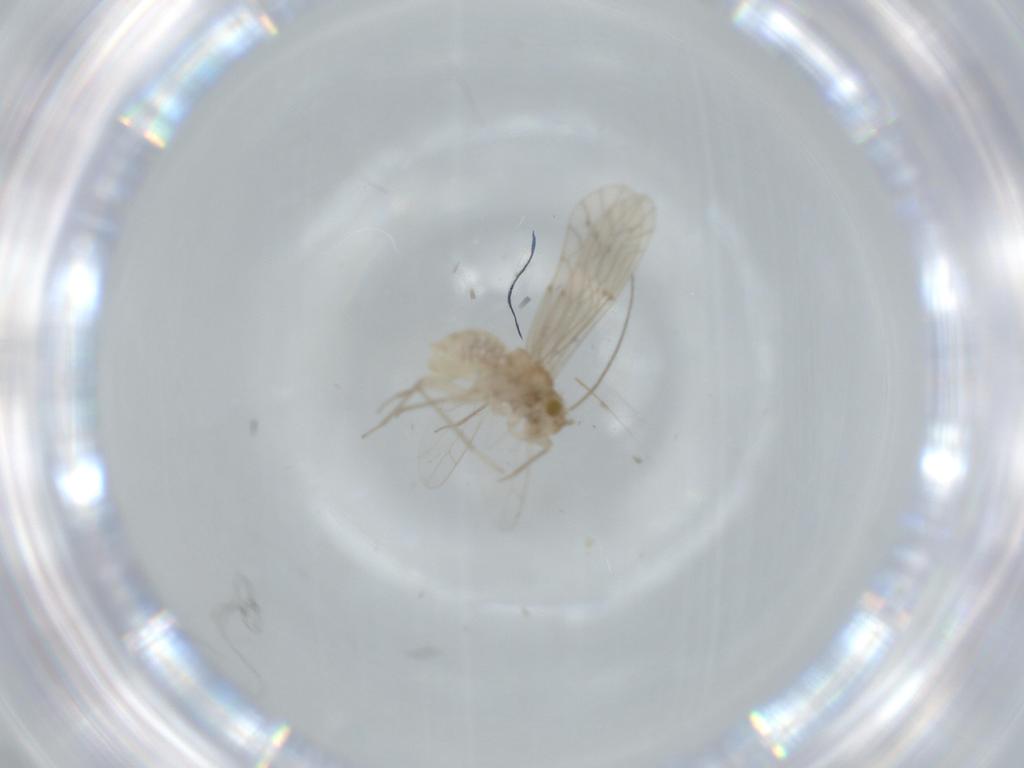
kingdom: Animalia
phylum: Arthropoda
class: Insecta
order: Psocodea
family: Lachesillidae
